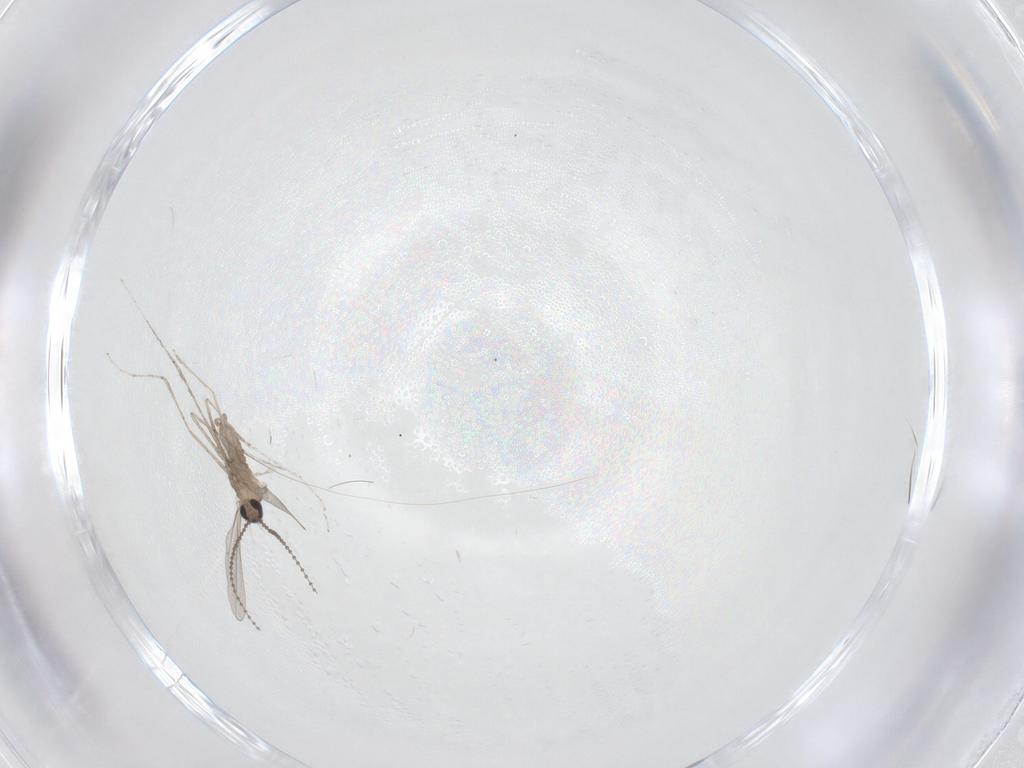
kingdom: Animalia
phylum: Arthropoda
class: Insecta
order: Diptera
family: Cecidomyiidae
